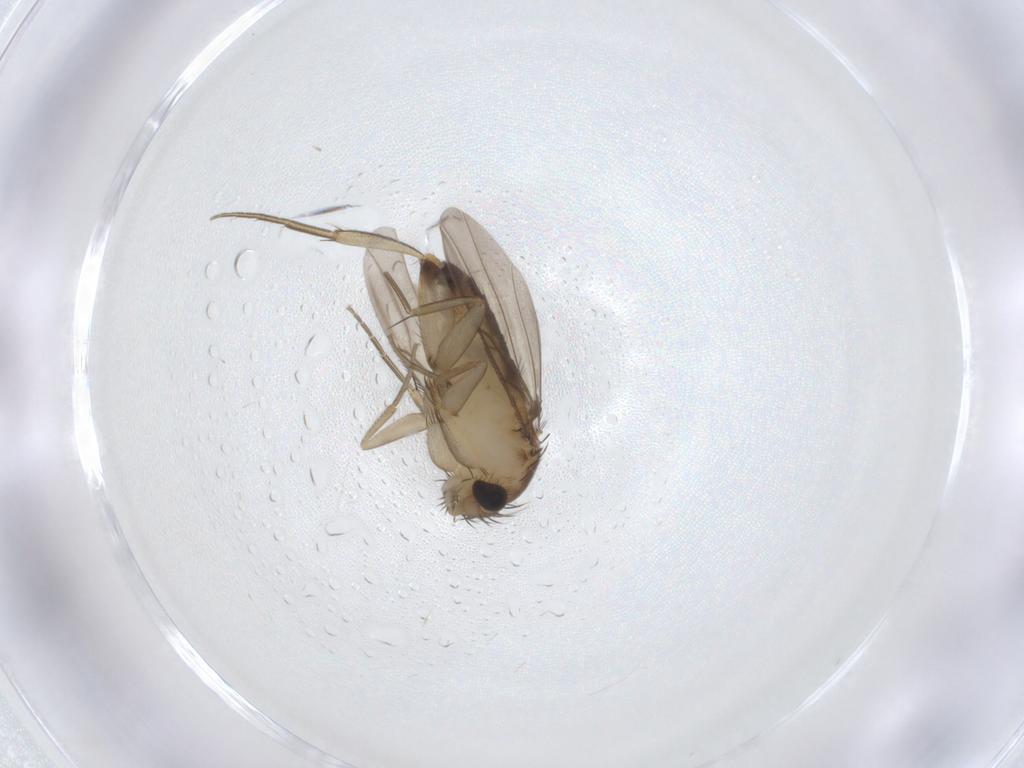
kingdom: Animalia
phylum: Arthropoda
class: Insecta
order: Diptera
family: Phoridae
